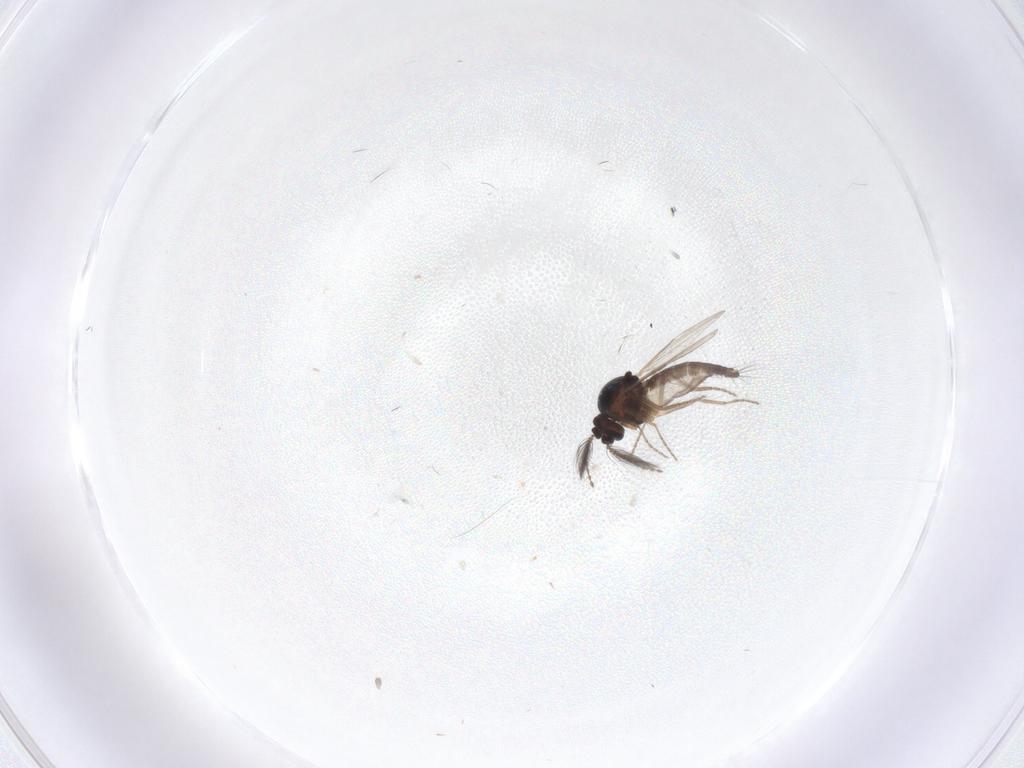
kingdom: Animalia
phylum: Arthropoda
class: Insecta
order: Diptera
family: Ceratopogonidae
